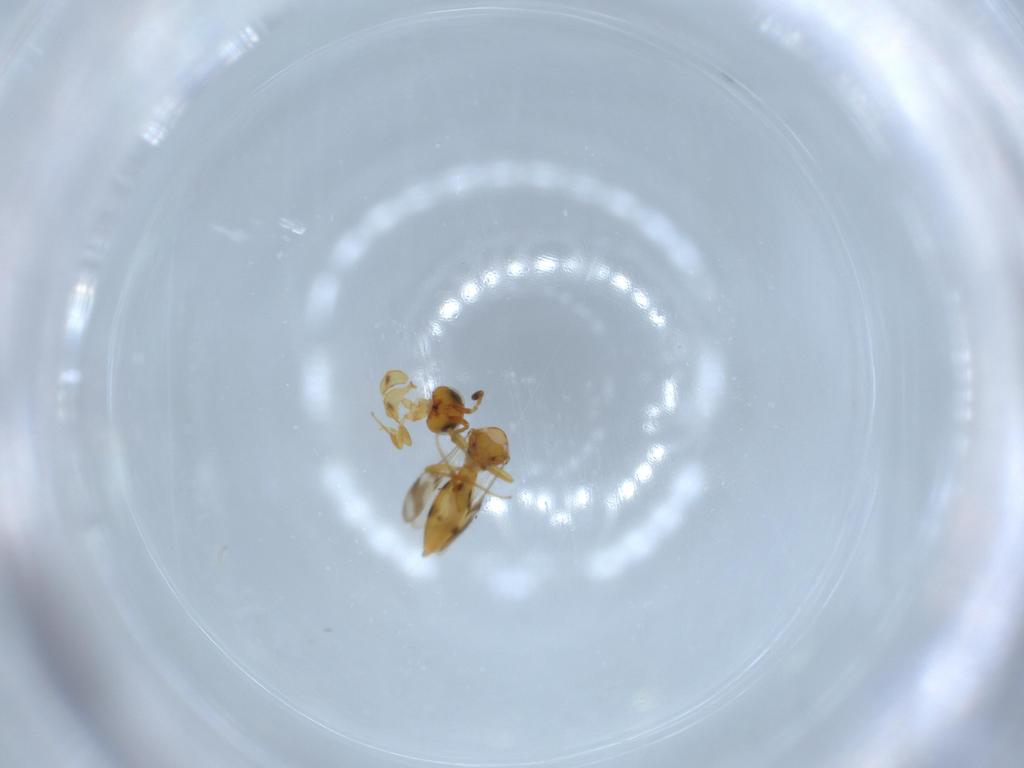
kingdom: Animalia
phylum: Arthropoda
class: Insecta
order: Hymenoptera
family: Scelionidae
